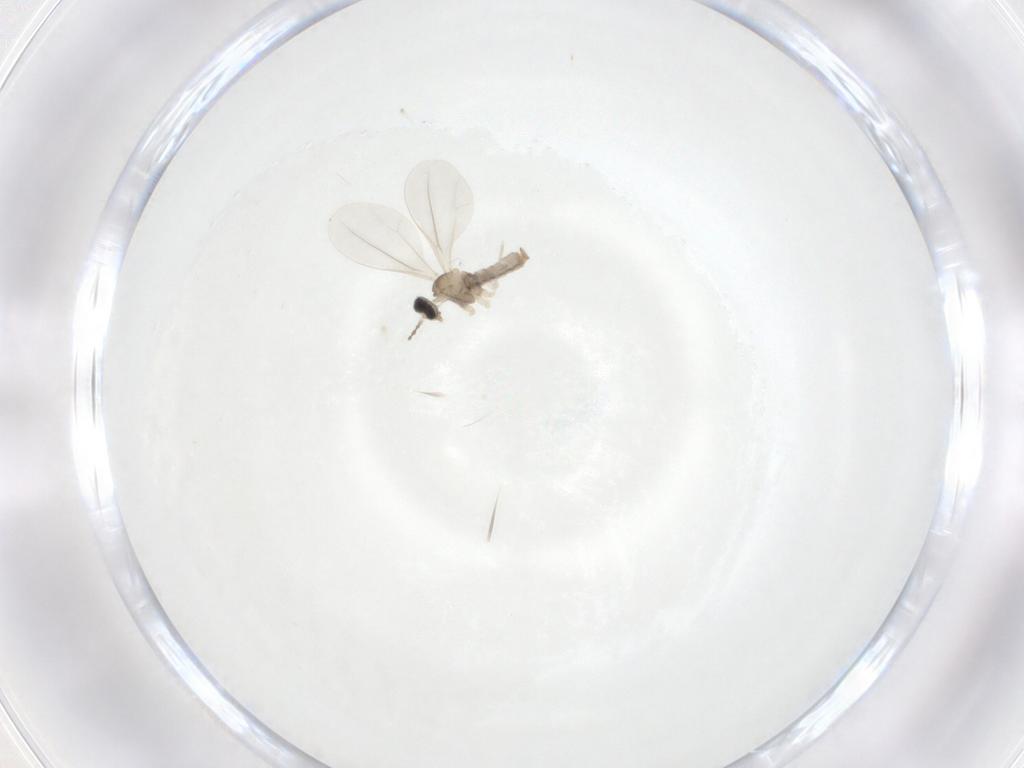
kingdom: Animalia
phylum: Arthropoda
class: Insecta
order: Diptera
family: Cecidomyiidae
